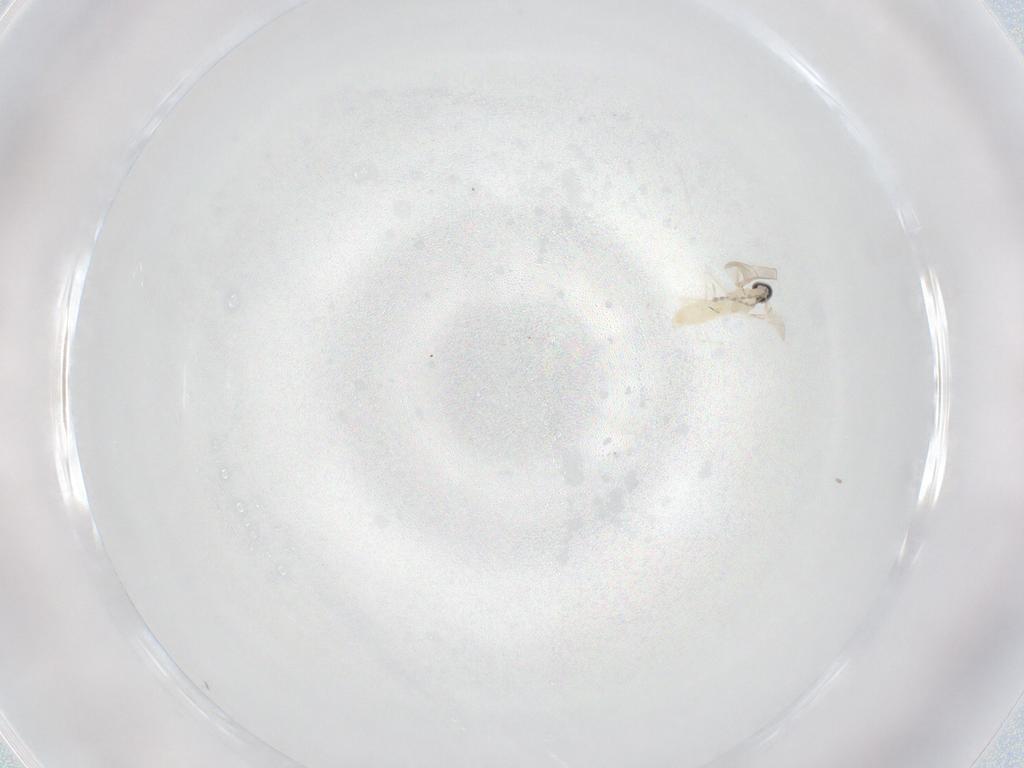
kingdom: Animalia
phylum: Arthropoda
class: Insecta
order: Diptera
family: Cecidomyiidae
